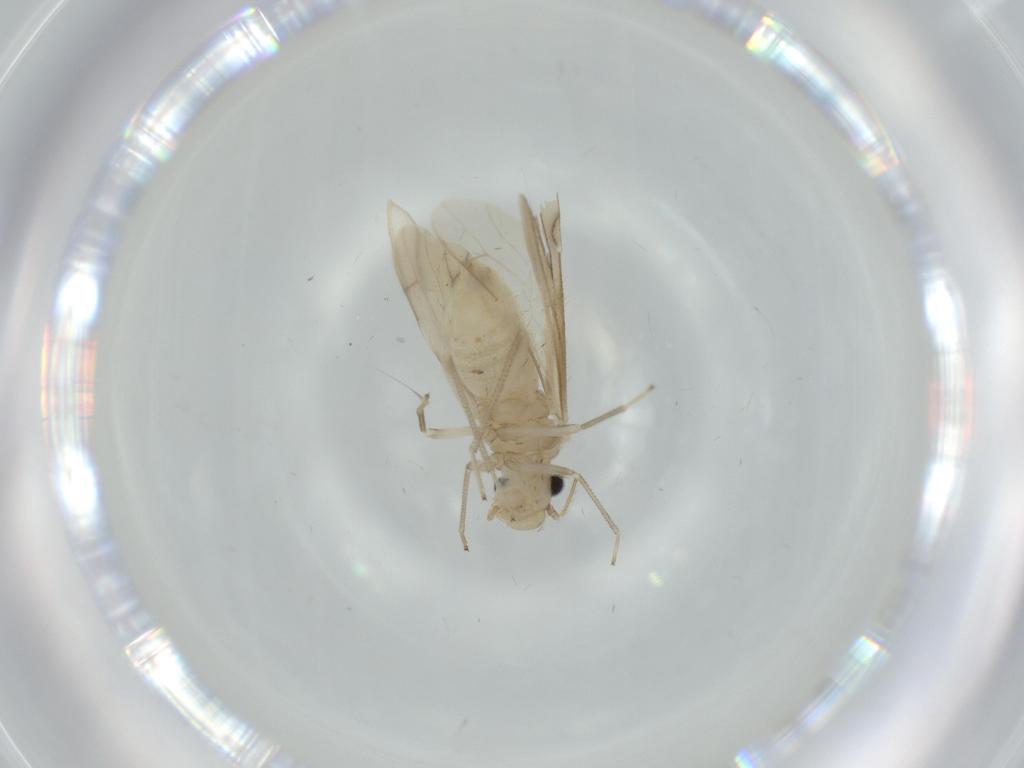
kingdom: Animalia
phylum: Arthropoda
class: Insecta
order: Psocodea
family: Caeciliusidae
